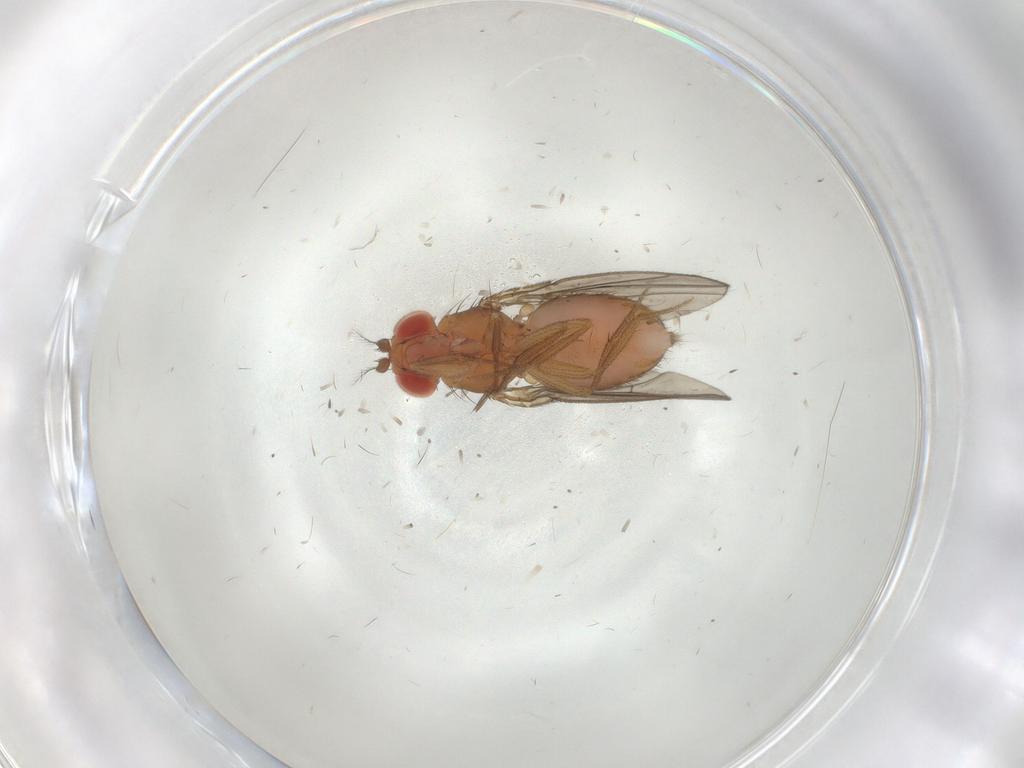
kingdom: Animalia
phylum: Arthropoda
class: Insecta
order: Diptera
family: Drosophilidae
